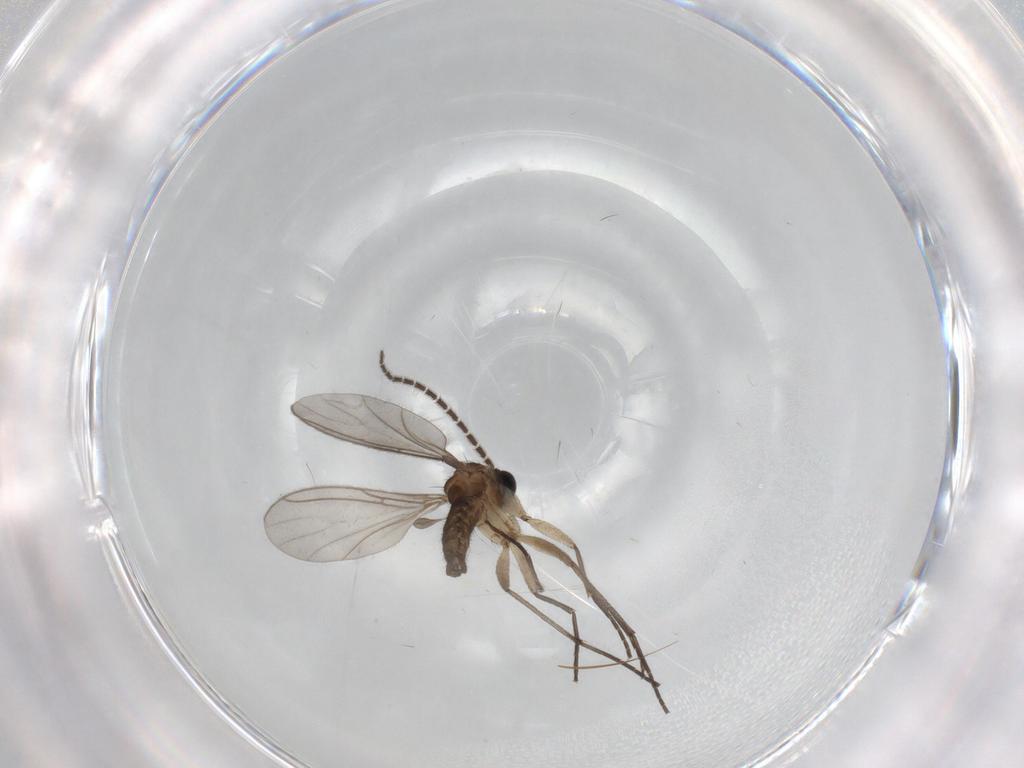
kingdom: Animalia
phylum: Arthropoda
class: Insecta
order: Diptera
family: Sciaridae
